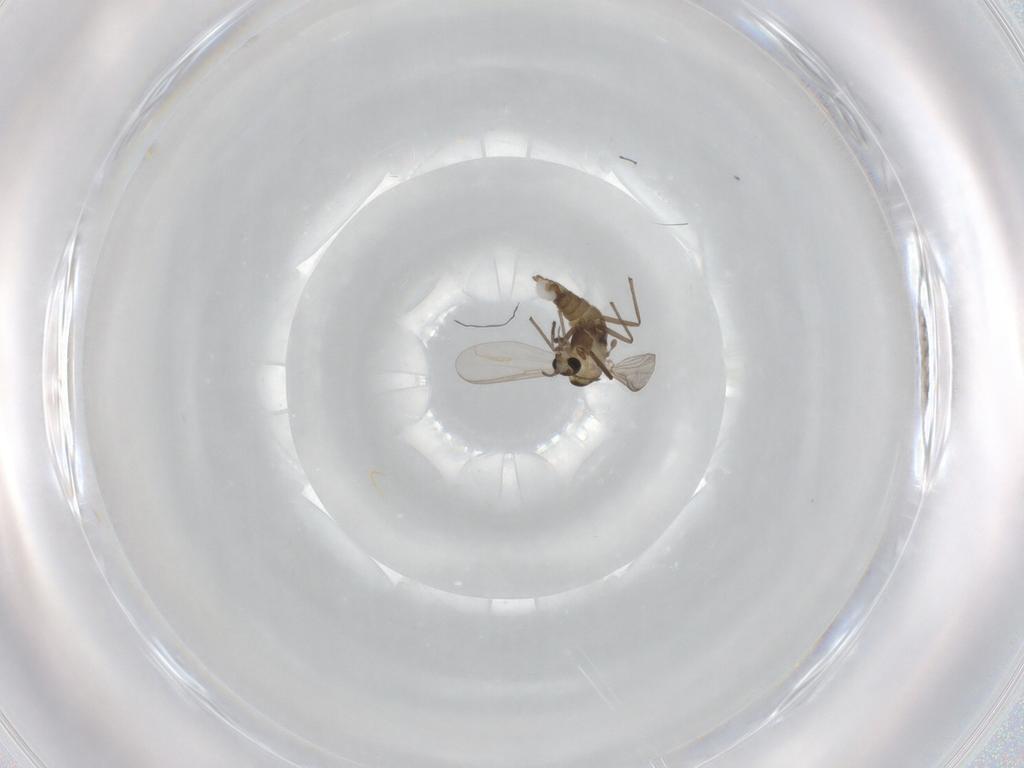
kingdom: Animalia
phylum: Arthropoda
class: Insecta
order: Diptera
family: Chironomidae
